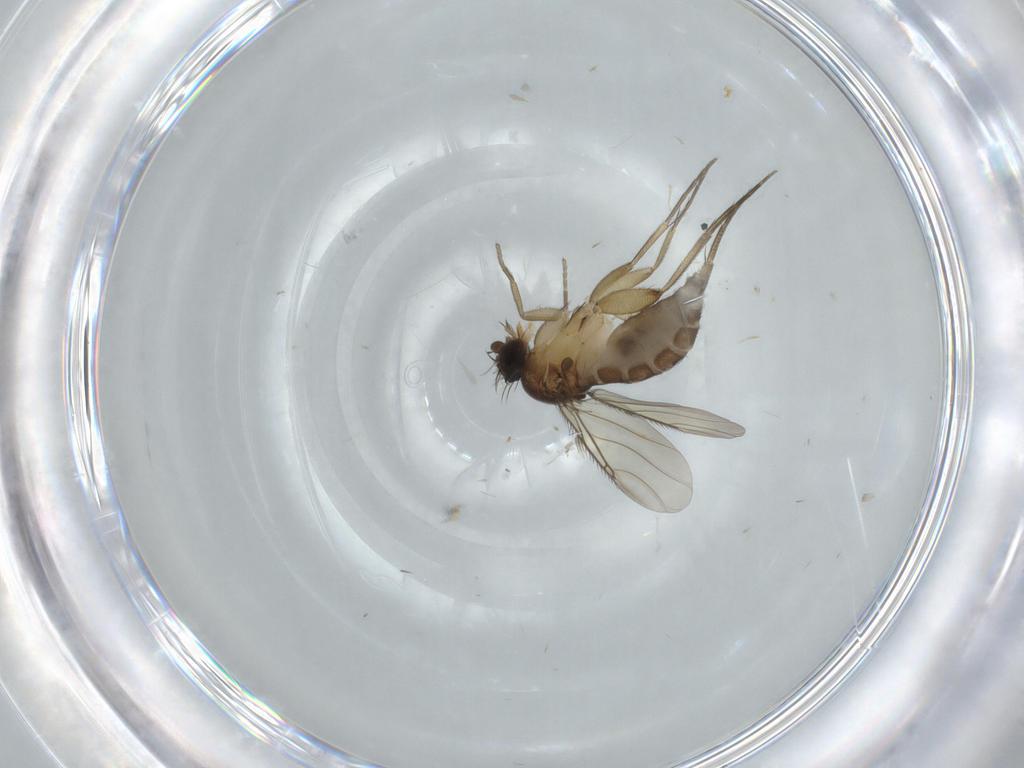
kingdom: Animalia
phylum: Arthropoda
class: Insecta
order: Diptera
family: Phoridae
